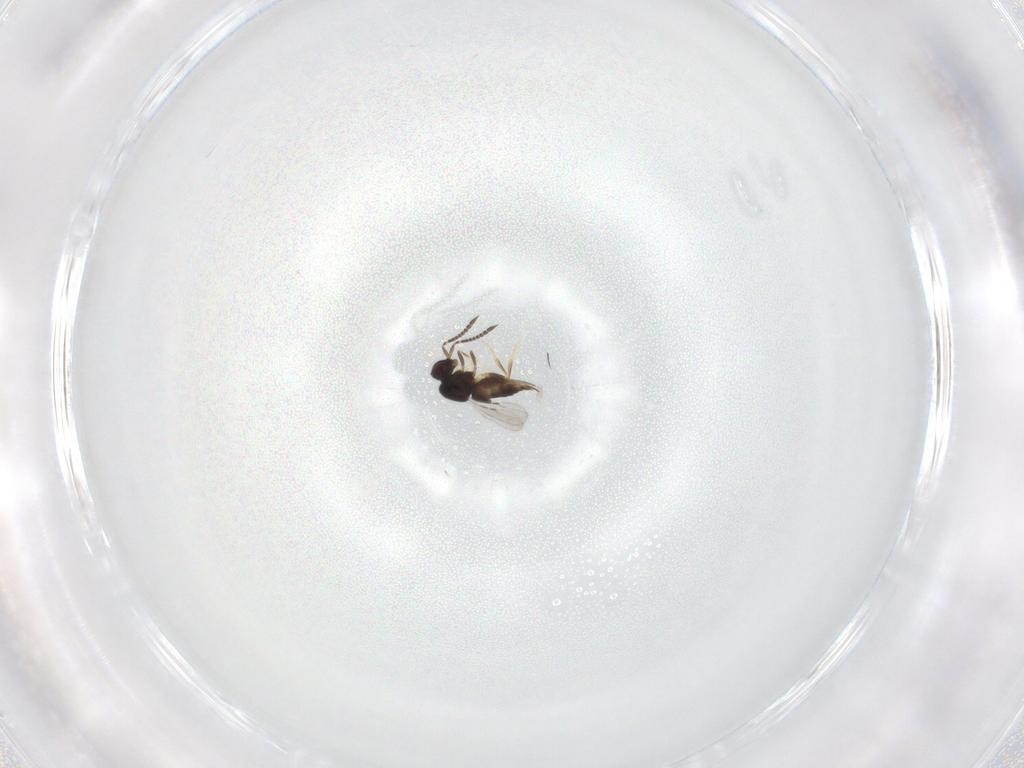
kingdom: Animalia
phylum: Arthropoda
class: Insecta
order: Hymenoptera
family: Ceraphronidae
